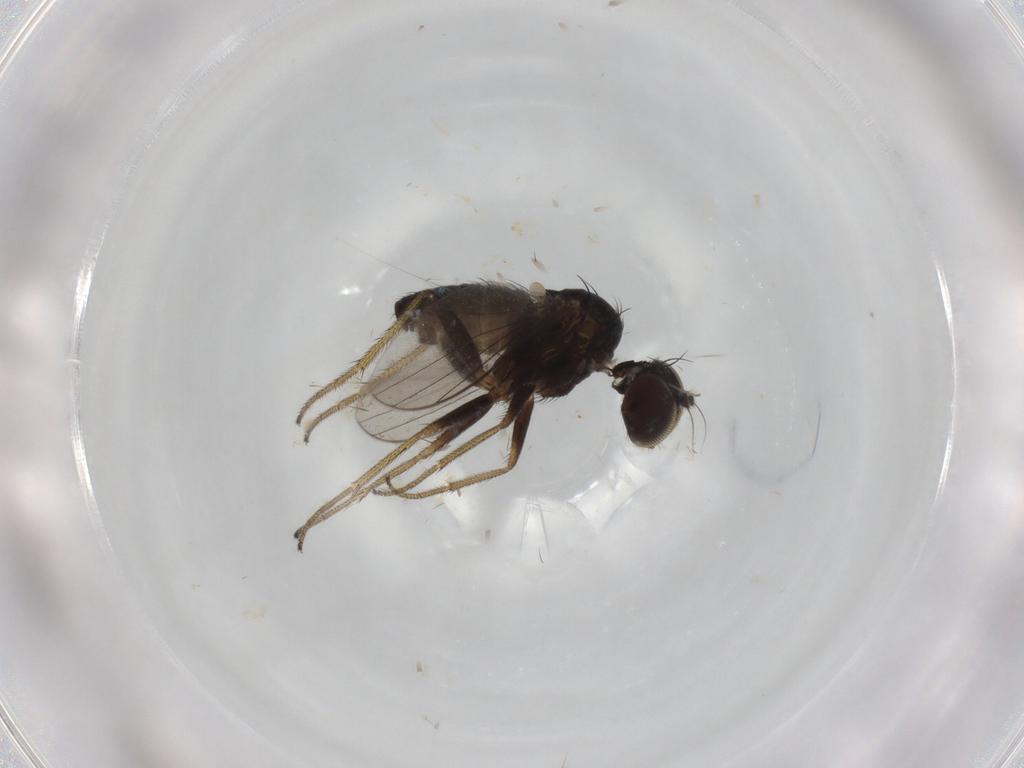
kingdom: Animalia
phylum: Arthropoda
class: Insecta
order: Diptera
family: Dolichopodidae
